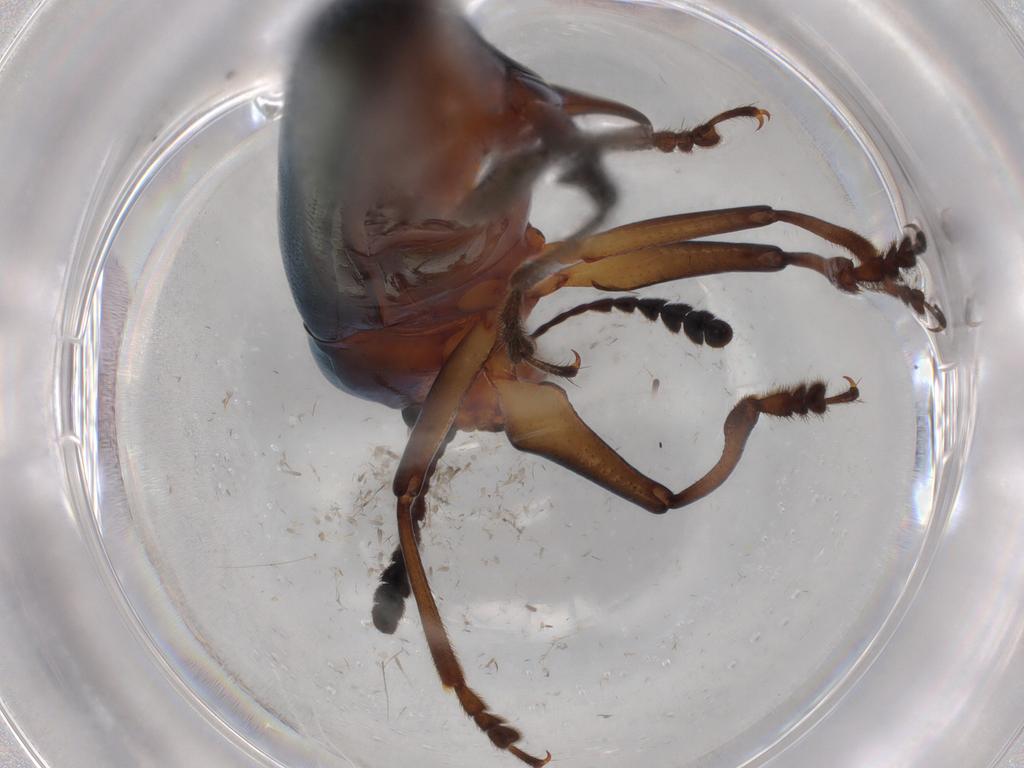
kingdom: Animalia
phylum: Arthropoda
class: Insecta
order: Coleoptera
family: Erotylidae
